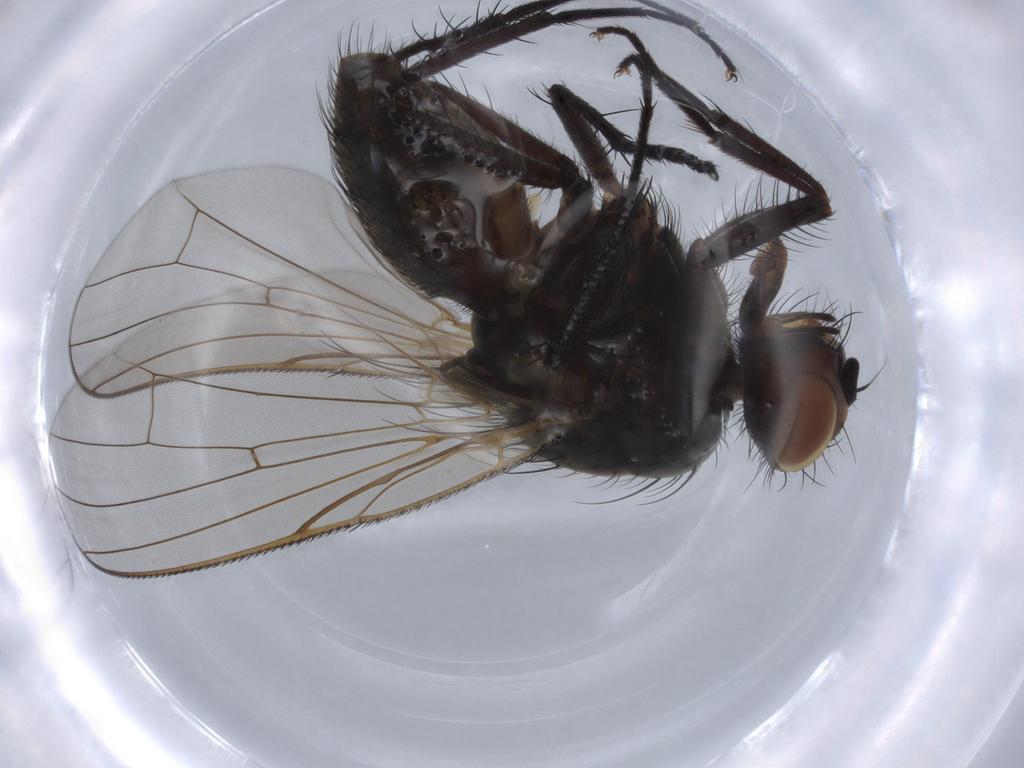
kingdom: Animalia
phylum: Arthropoda
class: Insecta
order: Diptera
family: Anthomyiidae
